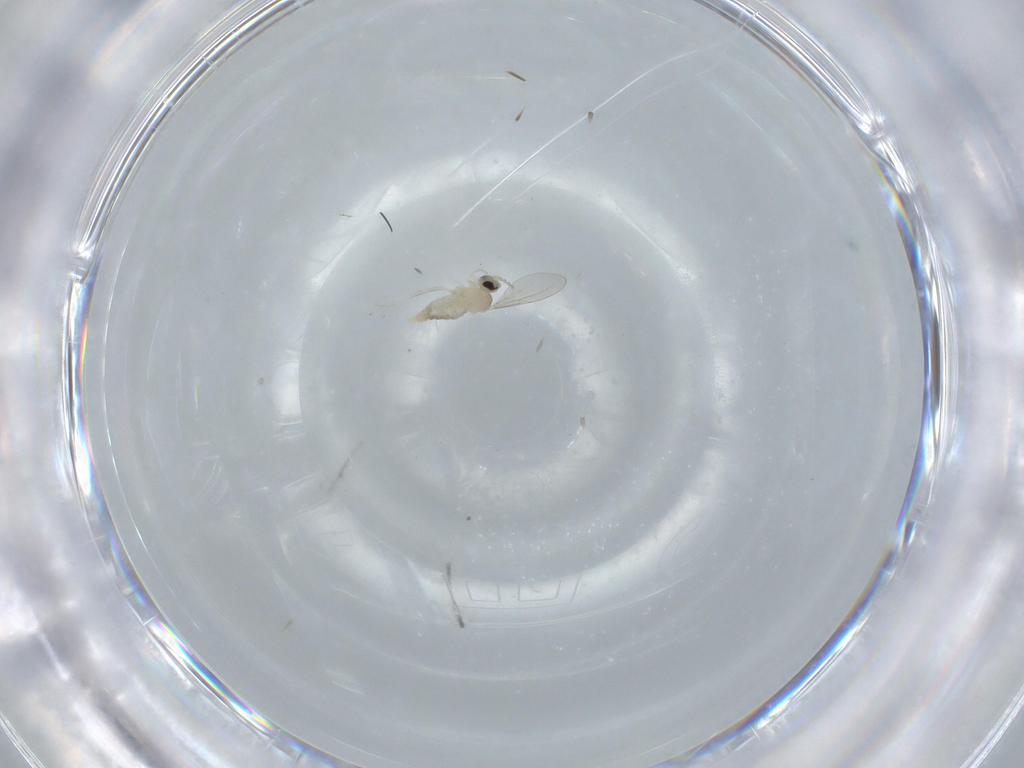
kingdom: Animalia
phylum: Arthropoda
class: Insecta
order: Diptera
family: Cecidomyiidae
